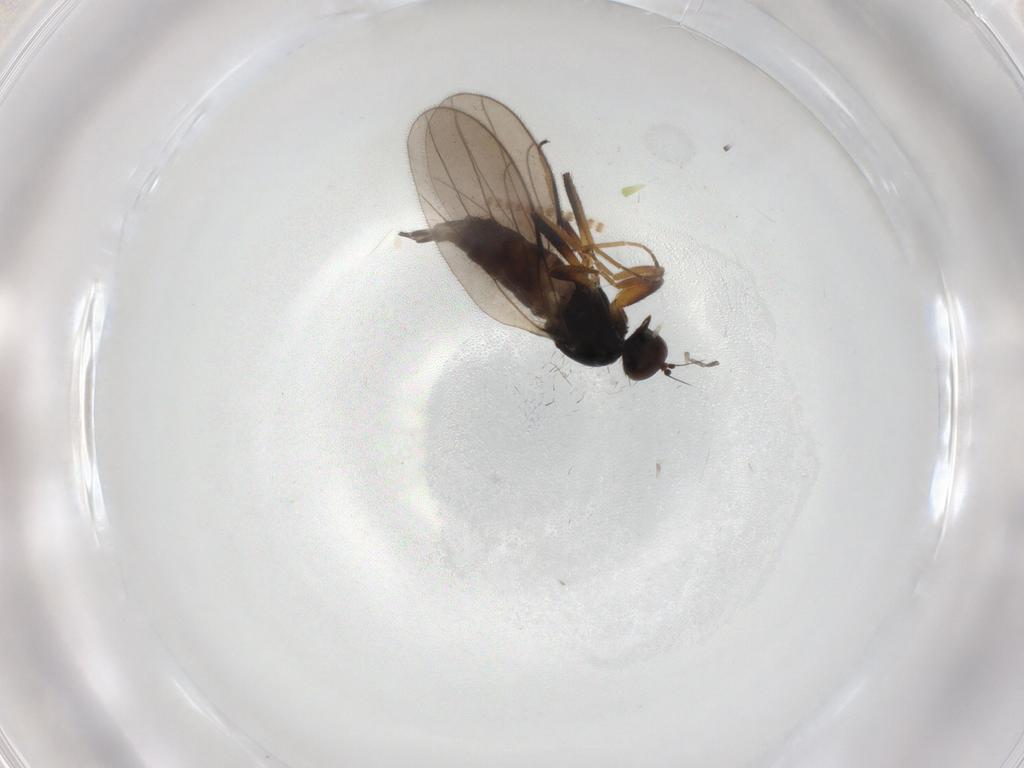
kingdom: Animalia
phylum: Arthropoda
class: Insecta
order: Diptera
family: Hybotidae
